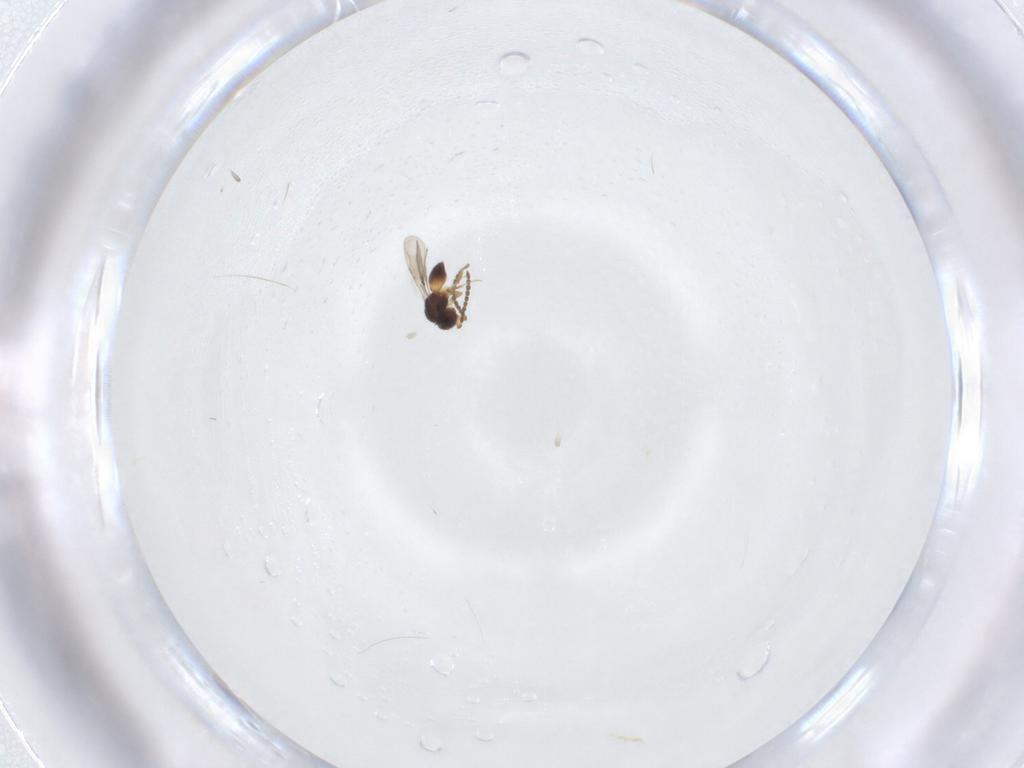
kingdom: Animalia
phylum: Arthropoda
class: Insecta
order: Hymenoptera
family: Ceraphronidae
